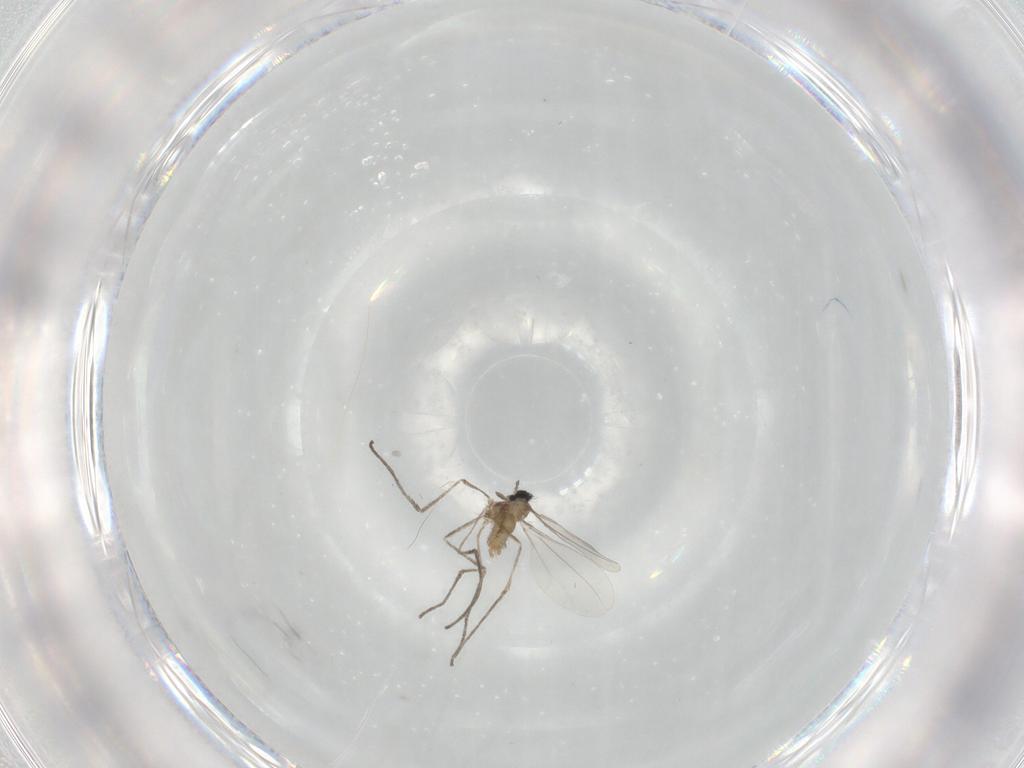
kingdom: Animalia
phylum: Arthropoda
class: Insecta
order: Diptera
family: Cecidomyiidae
